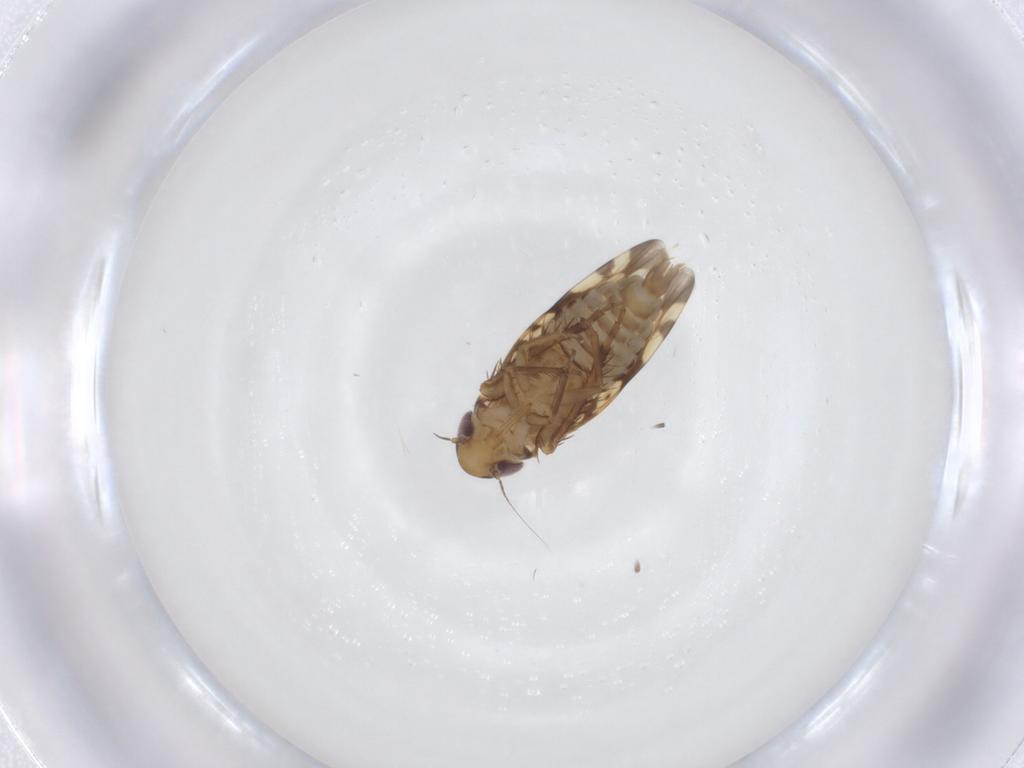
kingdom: Animalia
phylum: Arthropoda
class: Insecta
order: Hemiptera
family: Cicadellidae
